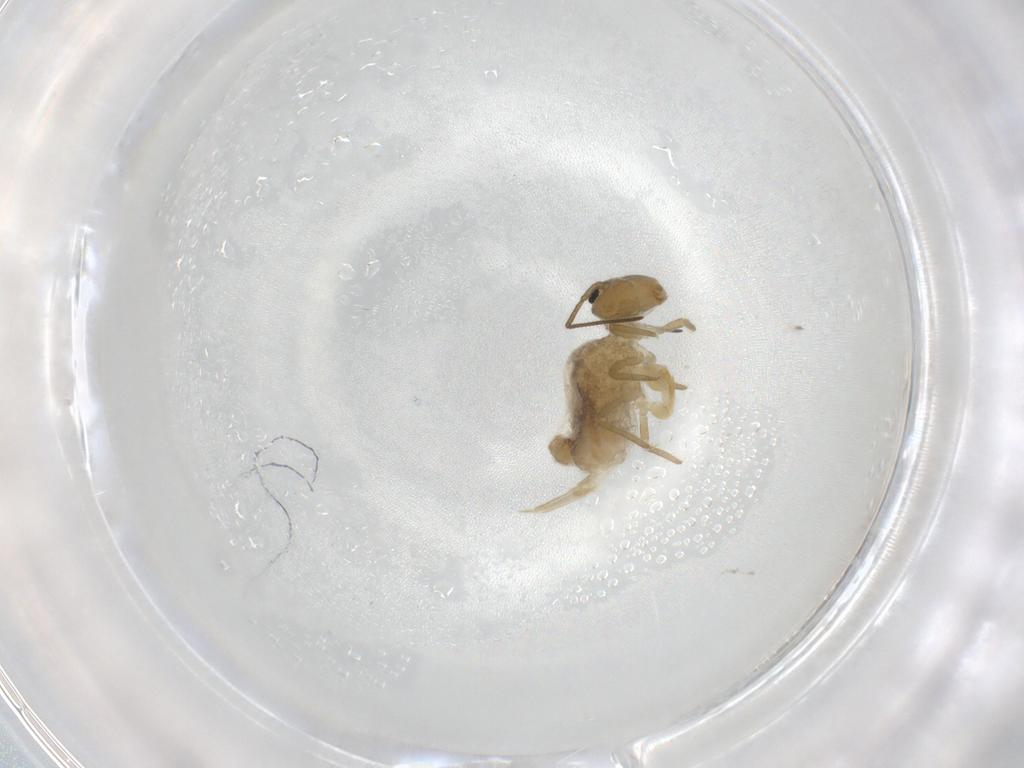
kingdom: Animalia
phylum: Arthropoda
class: Collembola
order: Symphypleona
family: Sminthuridae
